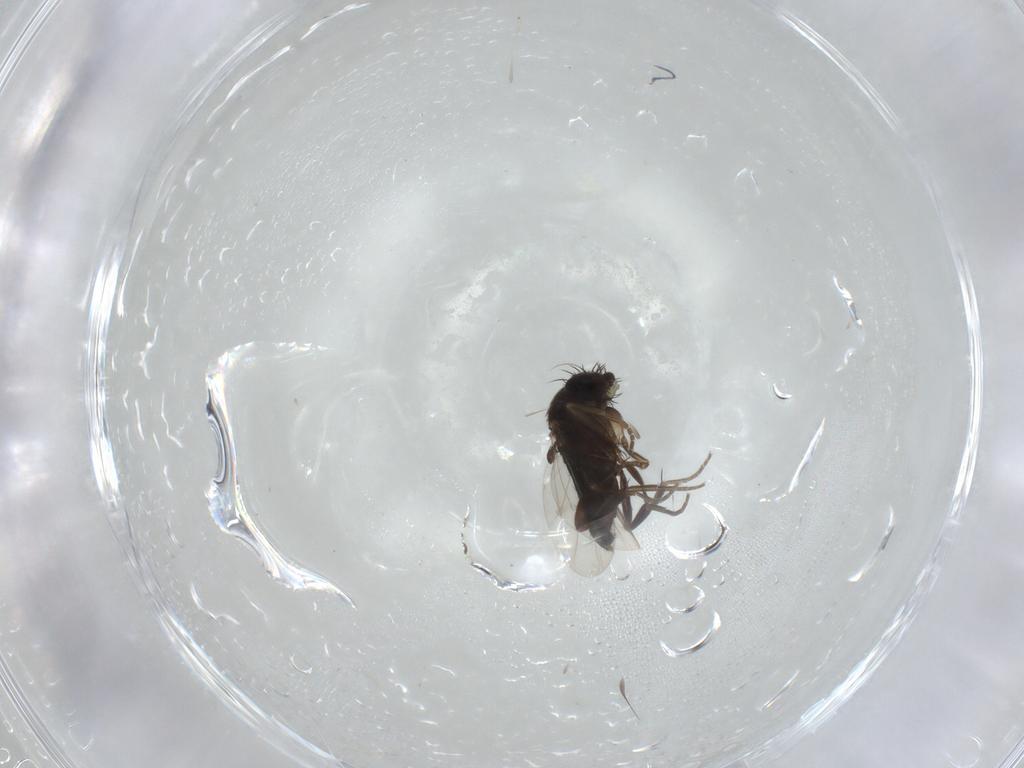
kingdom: Animalia
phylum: Arthropoda
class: Insecta
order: Diptera
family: Phoridae
